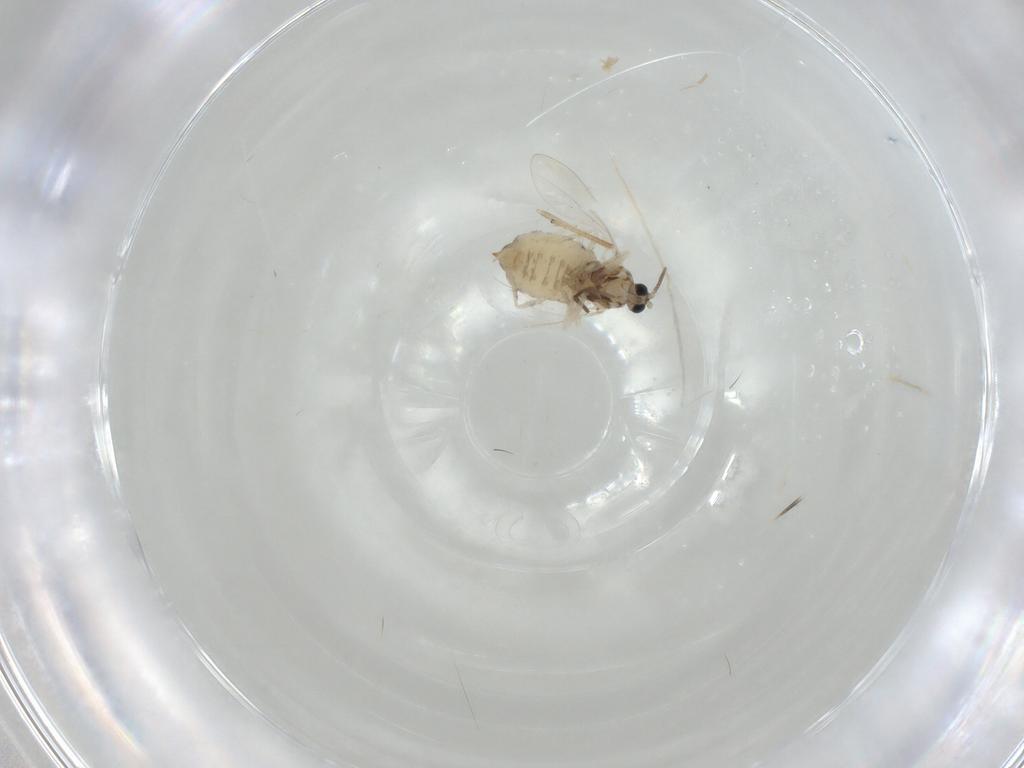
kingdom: Animalia
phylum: Arthropoda
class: Insecta
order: Diptera
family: Cecidomyiidae
